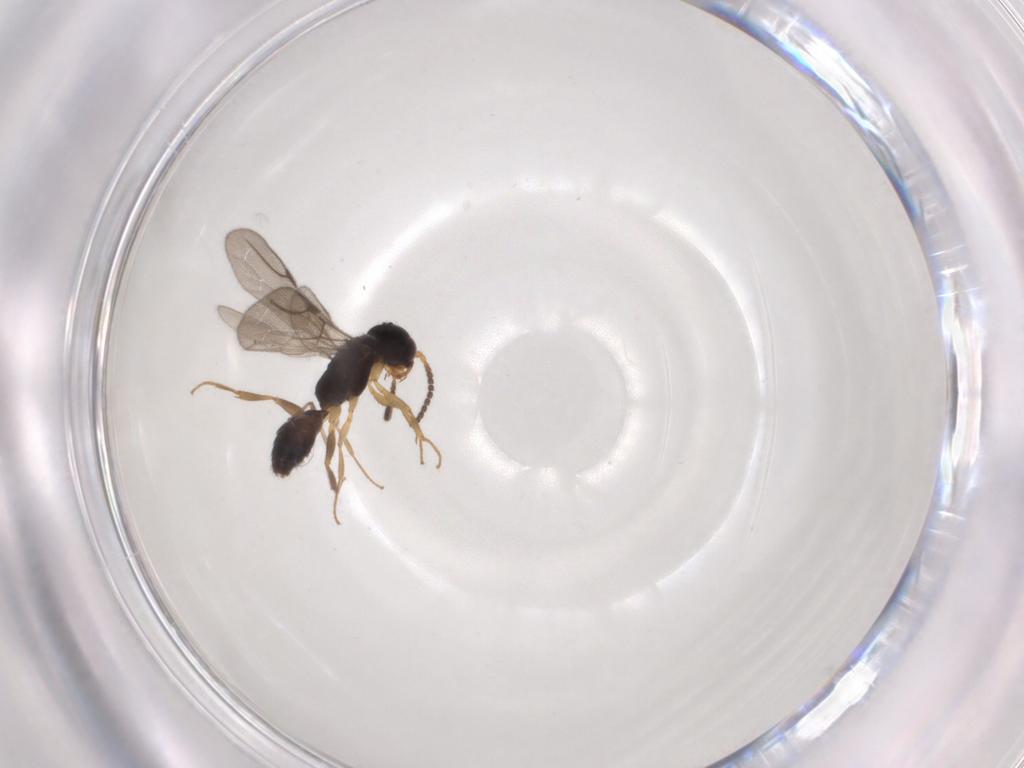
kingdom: Animalia
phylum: Arthropoda
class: Insecta
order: Hymenoptera
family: Bethylidae
